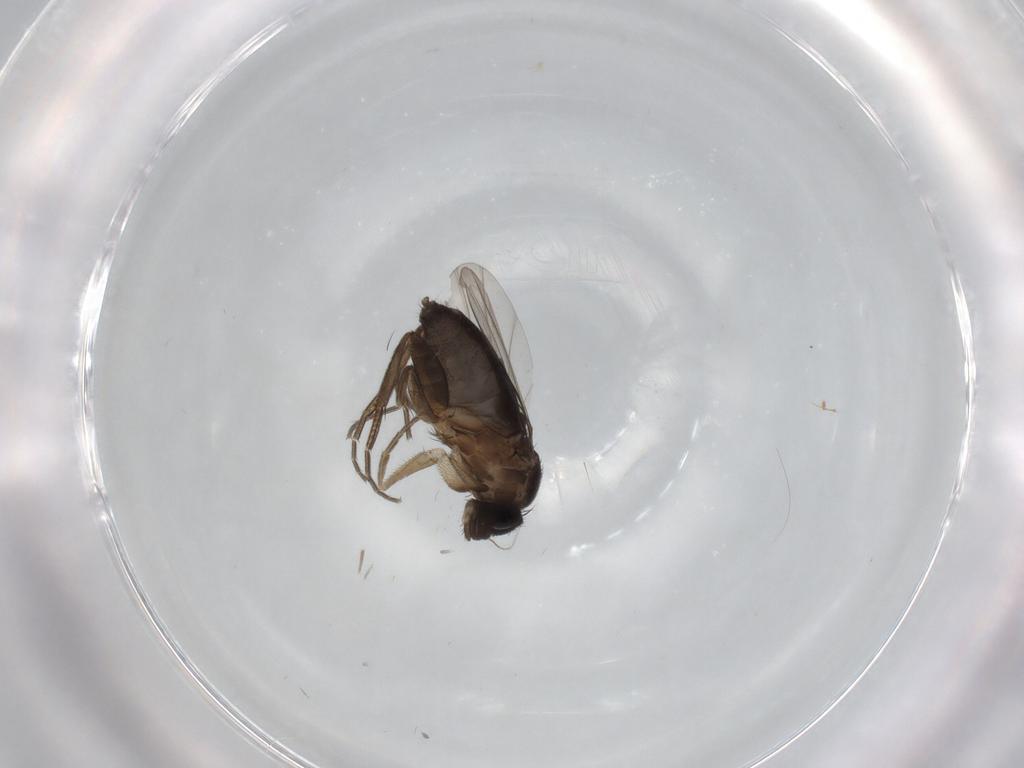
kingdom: Animalia
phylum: Arthropoda
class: Insecta
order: Diptera
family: Phoridae
